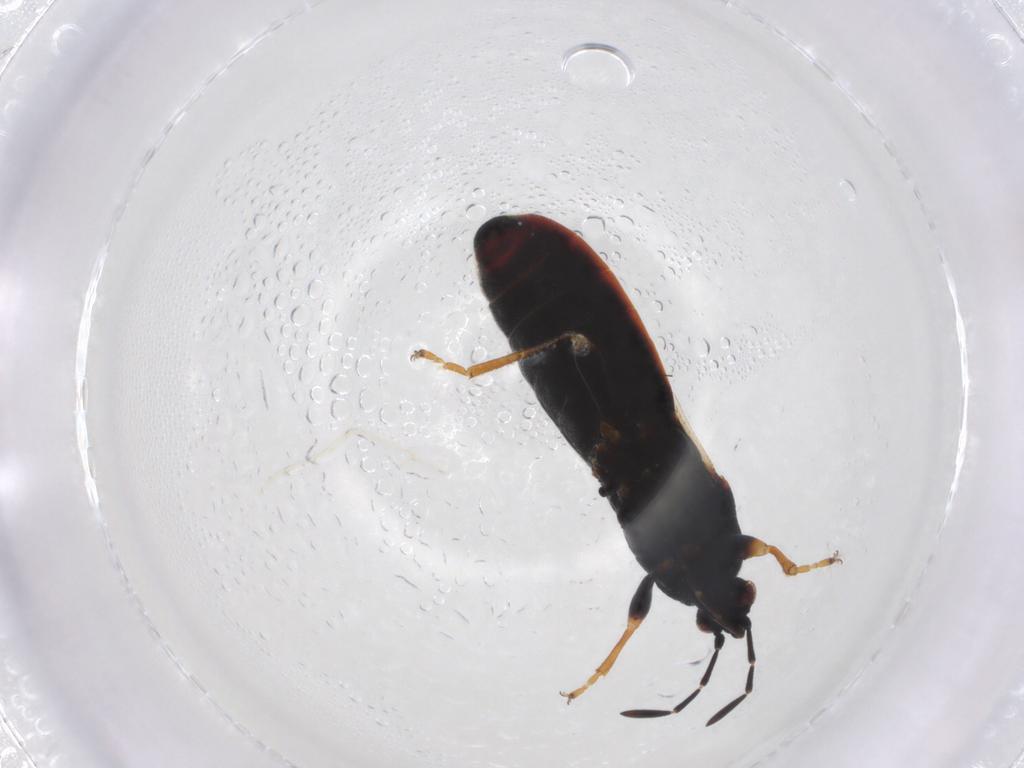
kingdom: Animalia
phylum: Arthropoda
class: Insecta
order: Hemiptera
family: Blissidae
